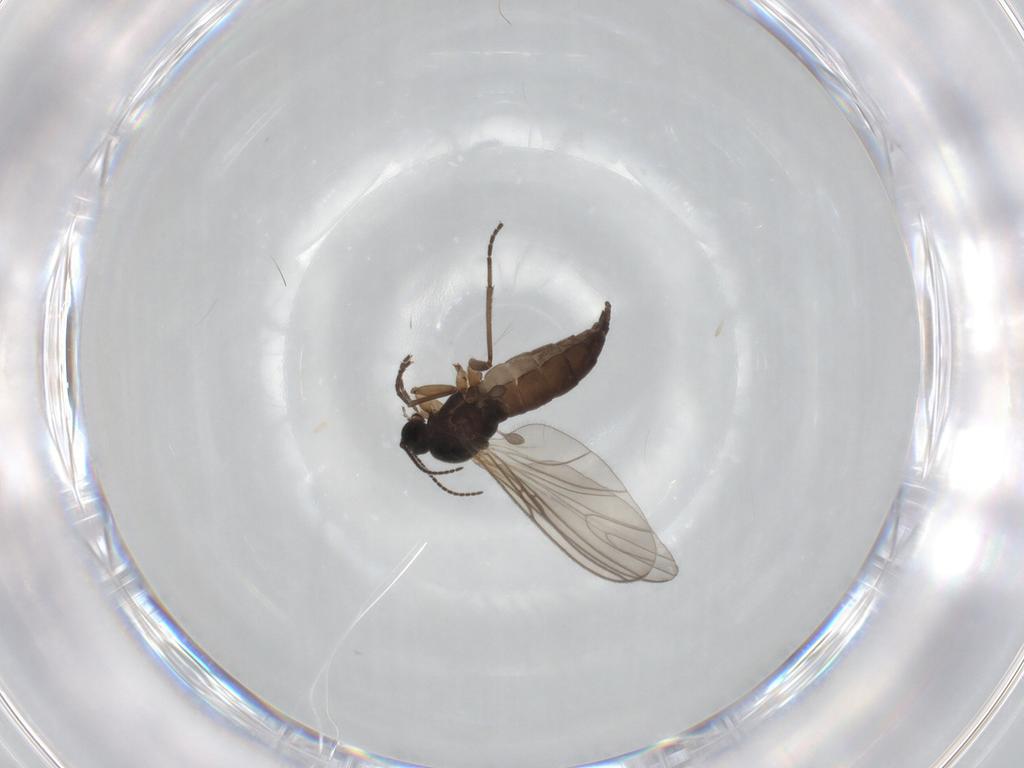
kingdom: Animalia
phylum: Arthropoda
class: Insecta
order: Diptera
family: Sciaridae
